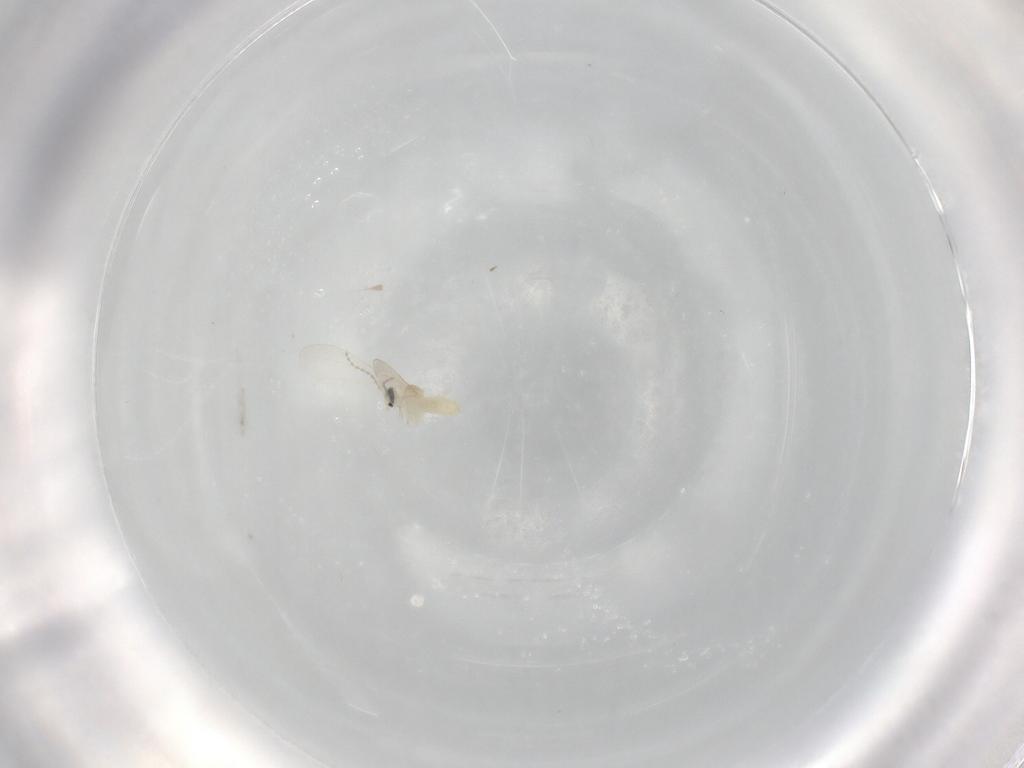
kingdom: Animalia
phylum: Arthropoda
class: Insecta
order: Diptera
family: Cecidomyiidae
